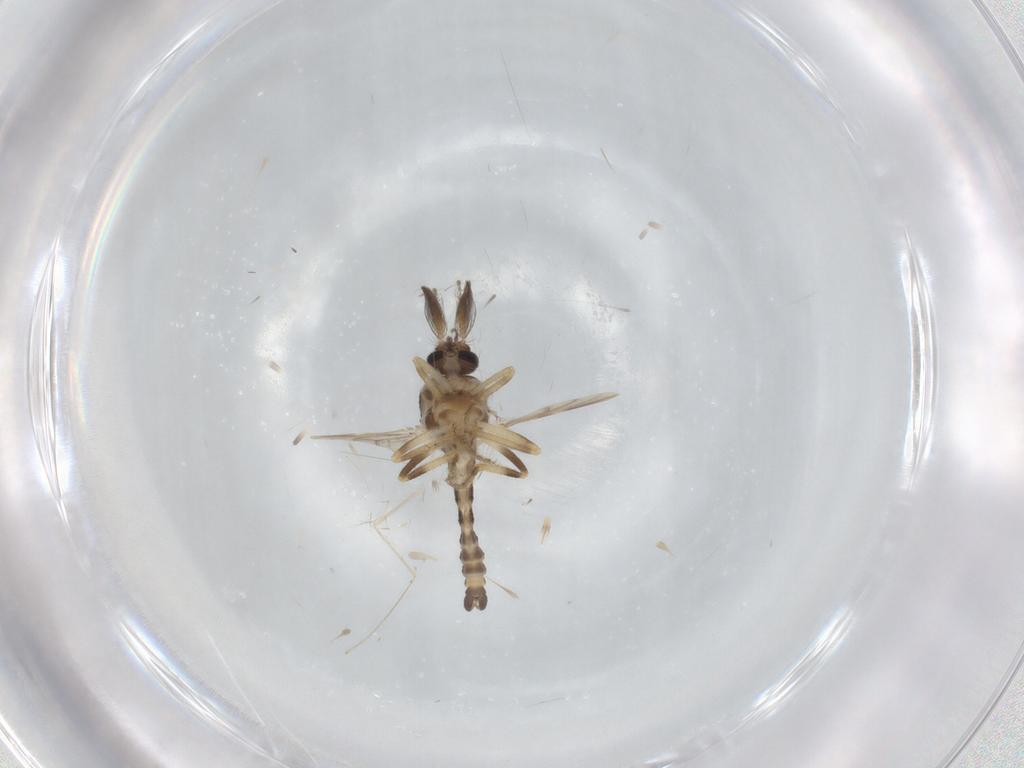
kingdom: Animalia
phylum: Arthropoda
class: Insecta
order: Diptera
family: Ceratopogonidae
